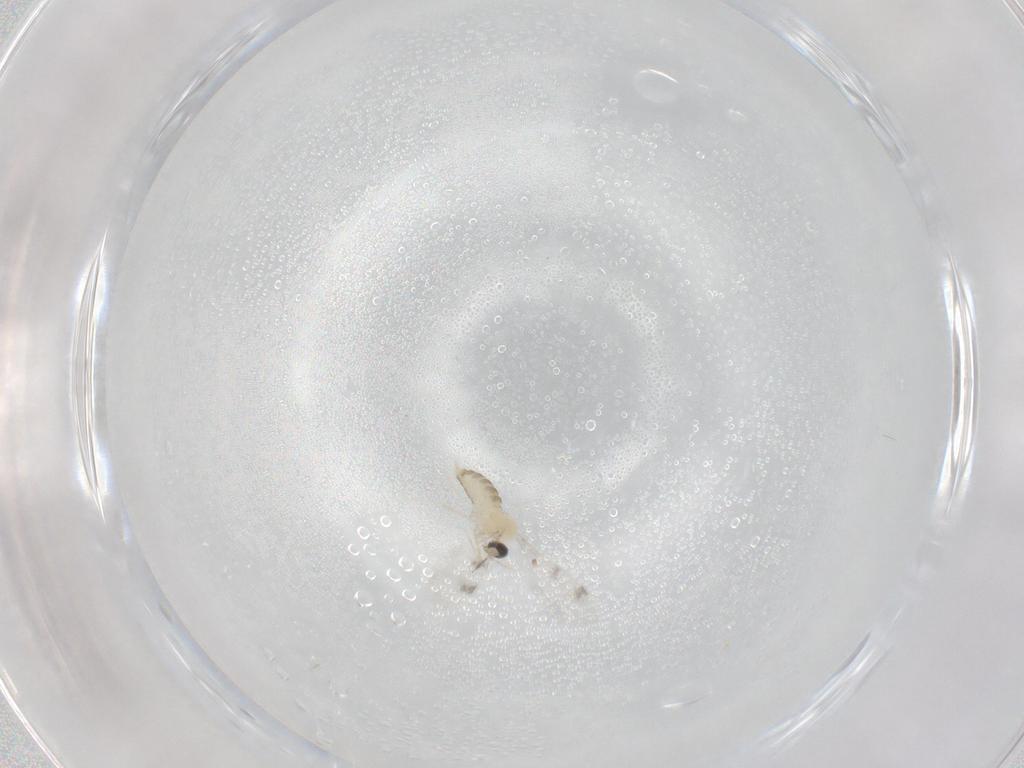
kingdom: Animalia
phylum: Arthropoda
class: Insecta
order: Diptera
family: Cecidomyiidae
